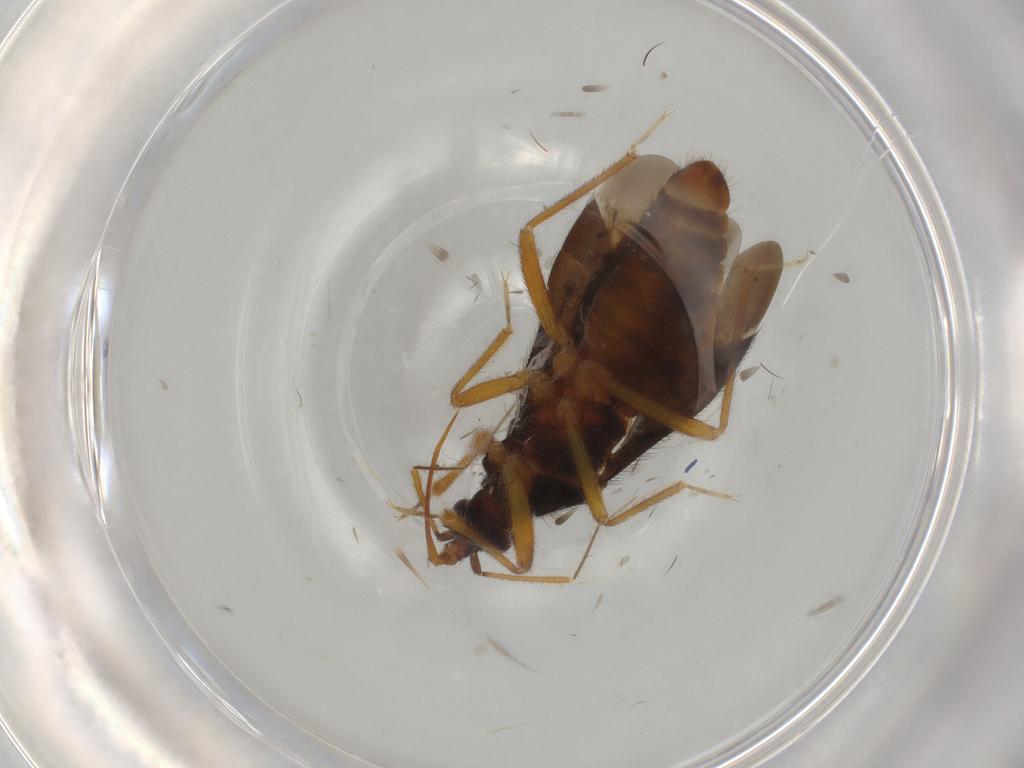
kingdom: Animalia
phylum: Arthropoda
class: Insecta
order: Hemiptera
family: Anthocoridae
